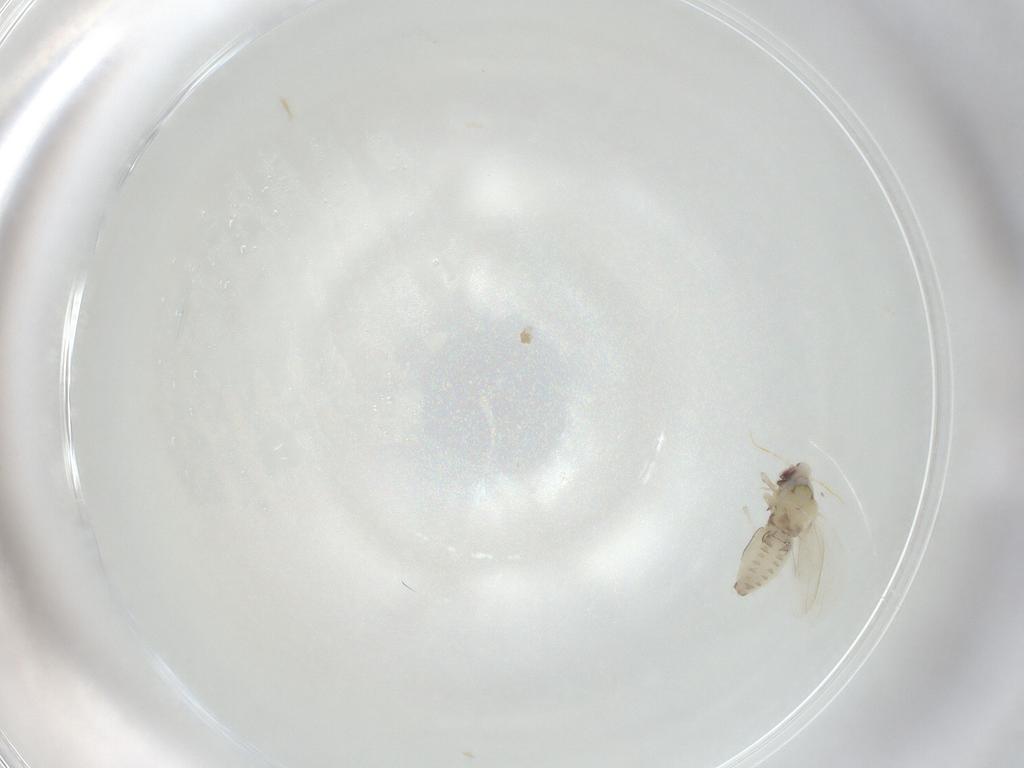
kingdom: Animalia
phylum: Arthropoda
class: Insecta
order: Hemiptera
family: Aleyrodidae
